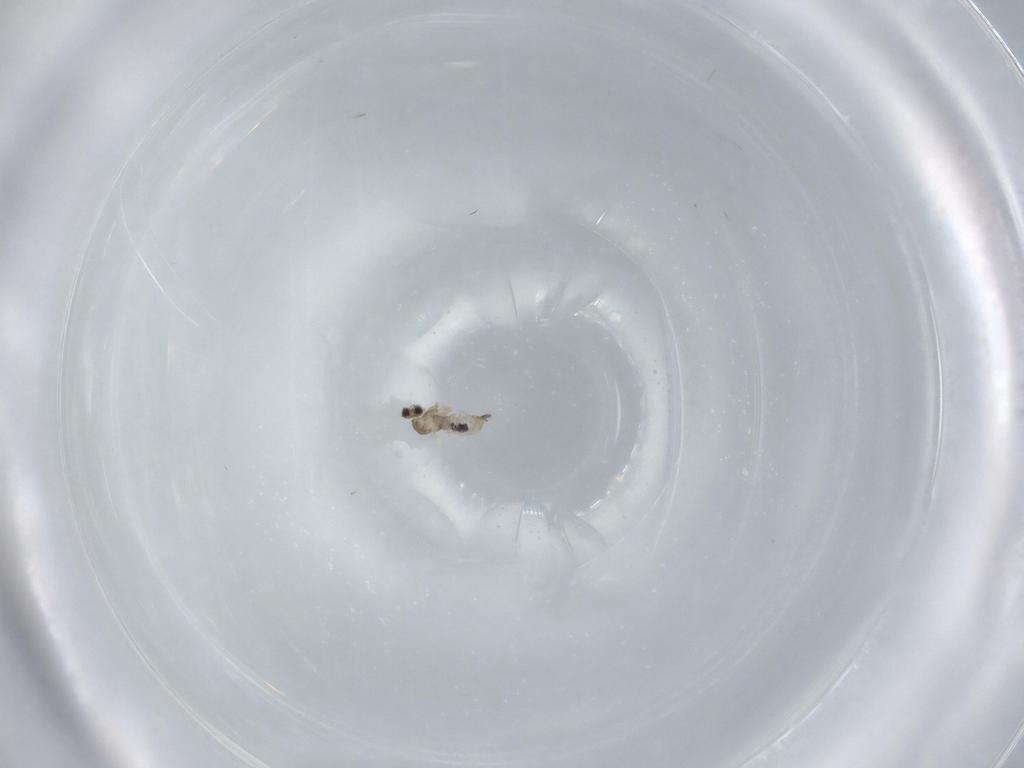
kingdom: Animalia
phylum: Arthropoda
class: Insecta
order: Diptera
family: Cecidomyiidae
